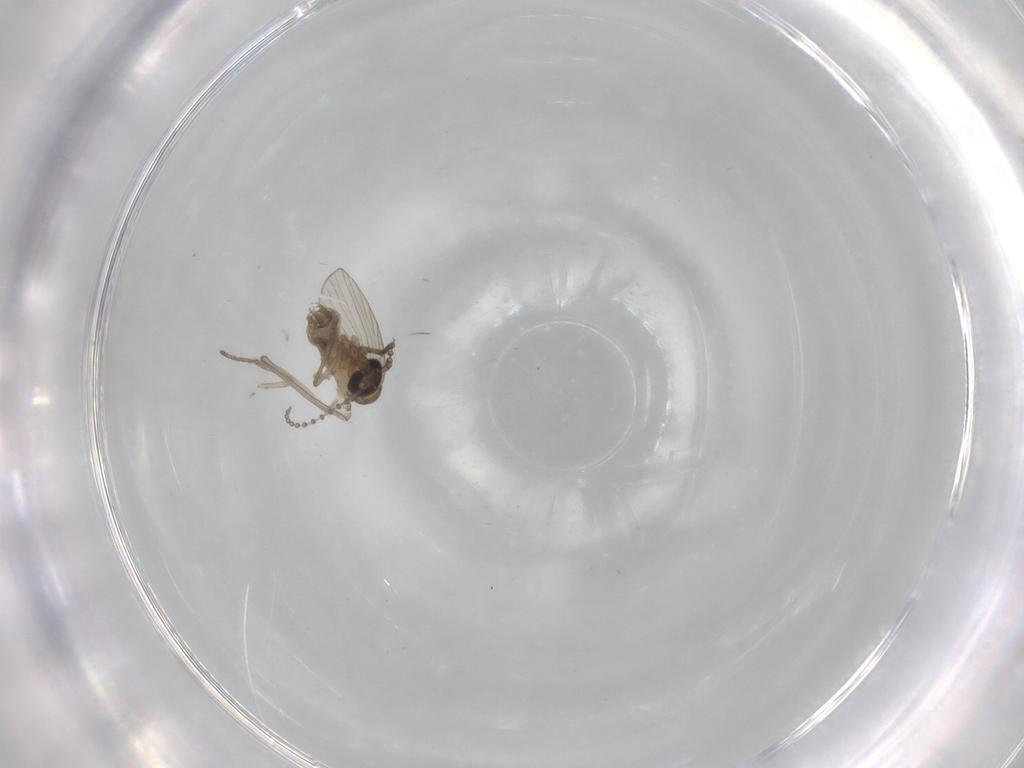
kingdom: Animalia
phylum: Arthropoda
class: Insecta
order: Diptera
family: Psychodidae
